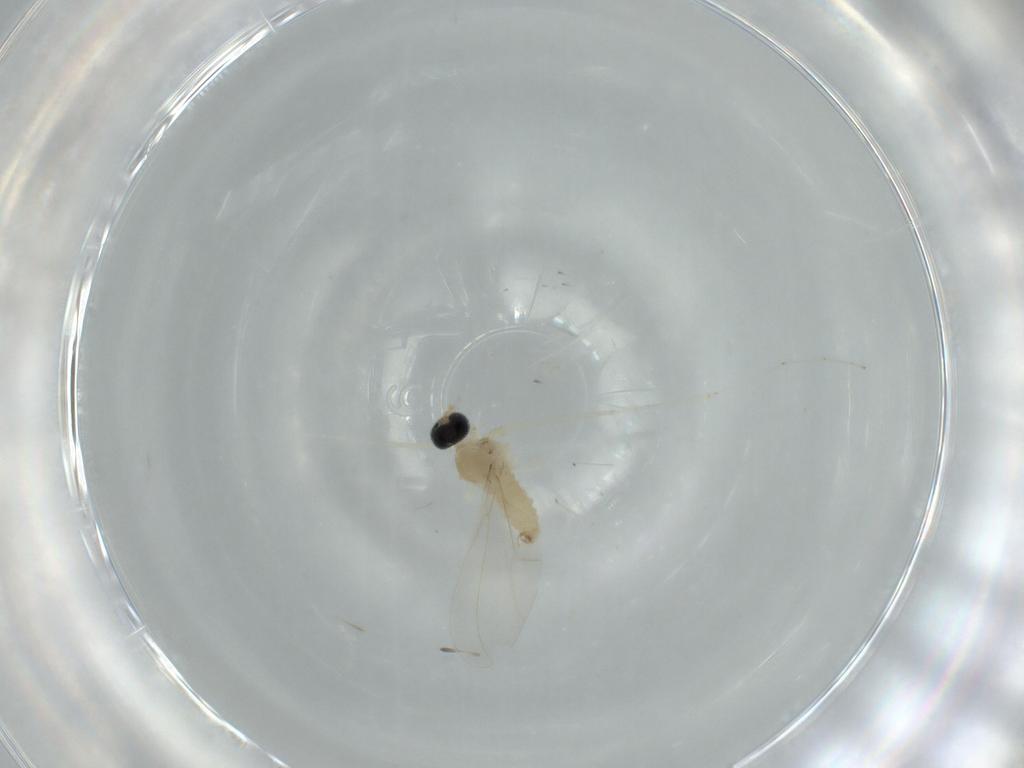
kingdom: Animalia
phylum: Arthropoda
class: Insecta
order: Diptera
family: Cecidomyiidae
